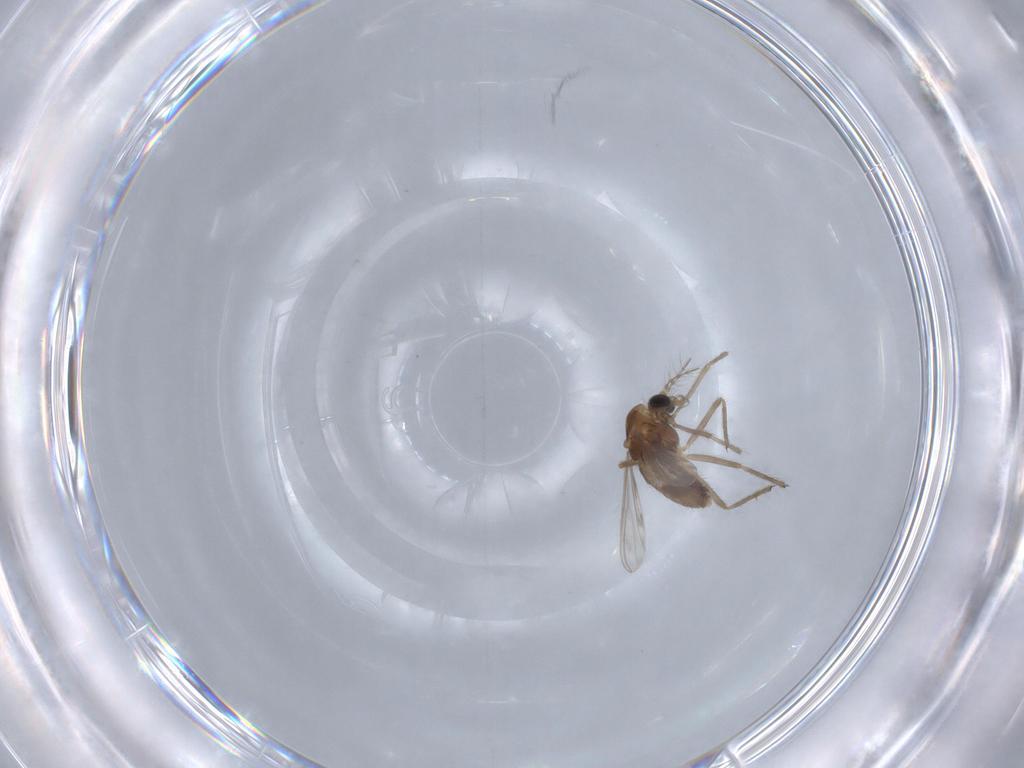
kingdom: Animalia
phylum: Arthropoda
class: Insecta
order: Diptera
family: Chironomidae
